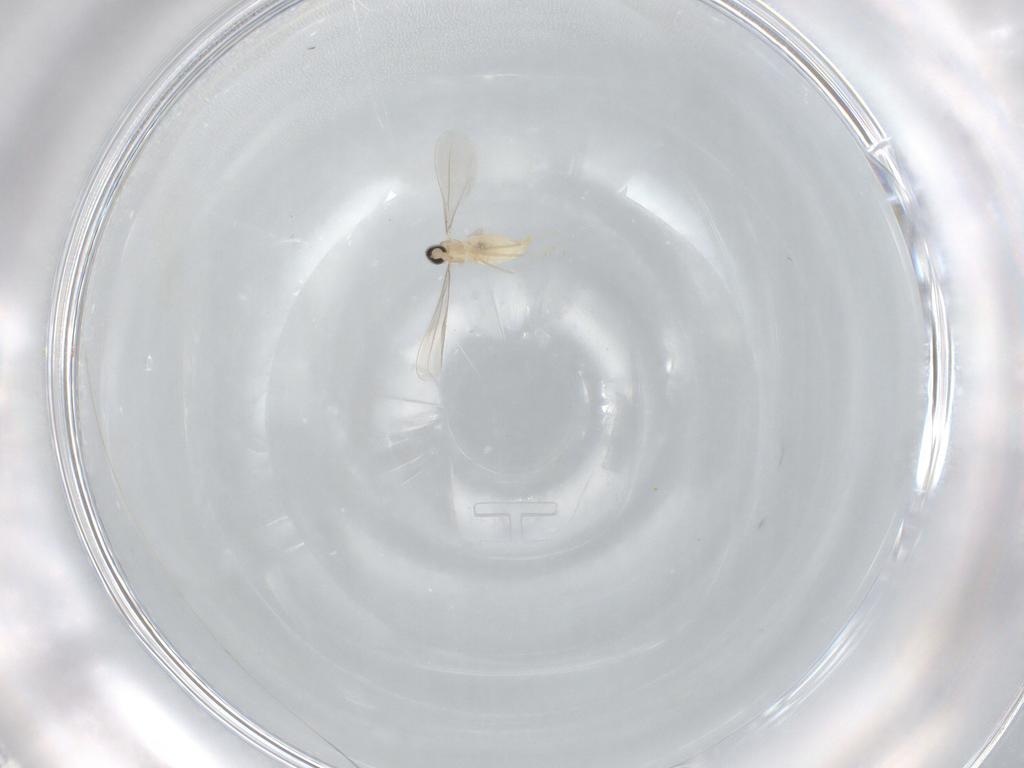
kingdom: Animalia
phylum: Arthropoda
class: Insecta
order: Diptera
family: Cecidomyiidae
